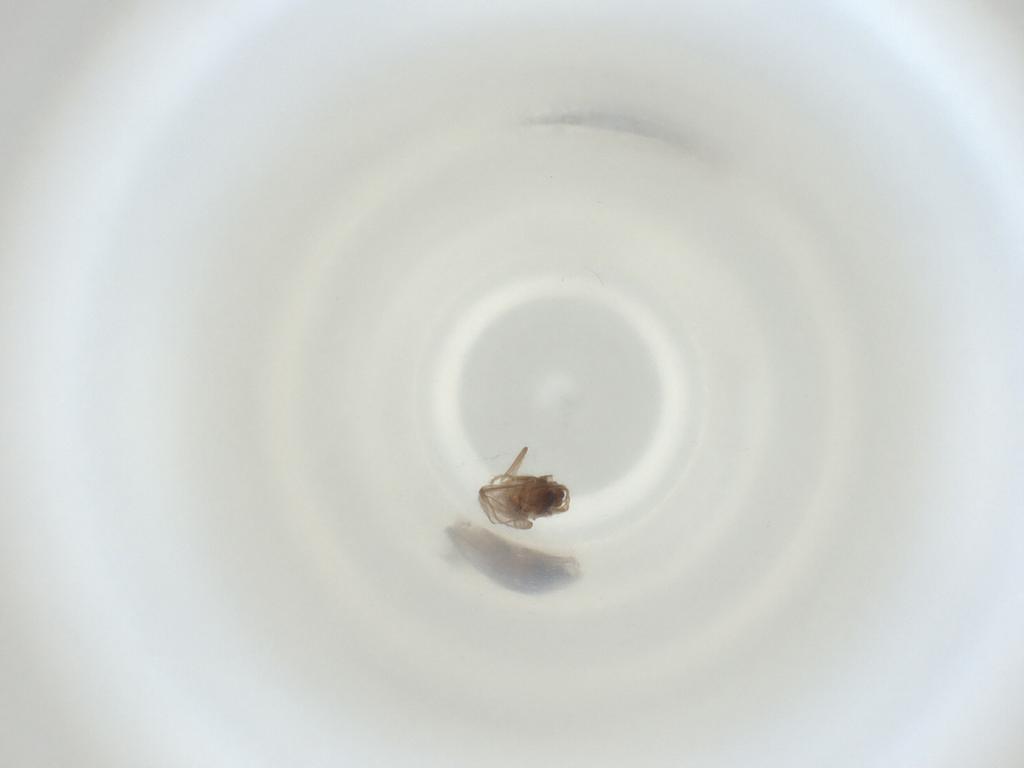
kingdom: Animalia
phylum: Arthropoda
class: Insecta
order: Diptera
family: Cecidomyiidae
